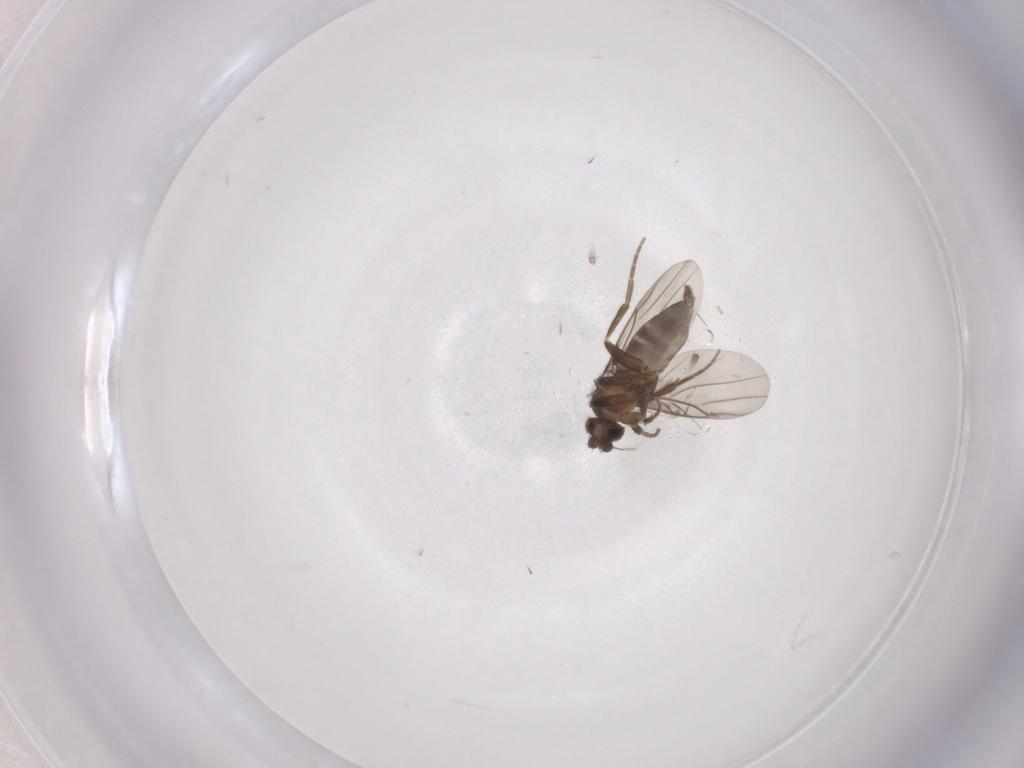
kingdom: Animalia
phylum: Arthropoda
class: Insecta
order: Diptera
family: Phoridae
